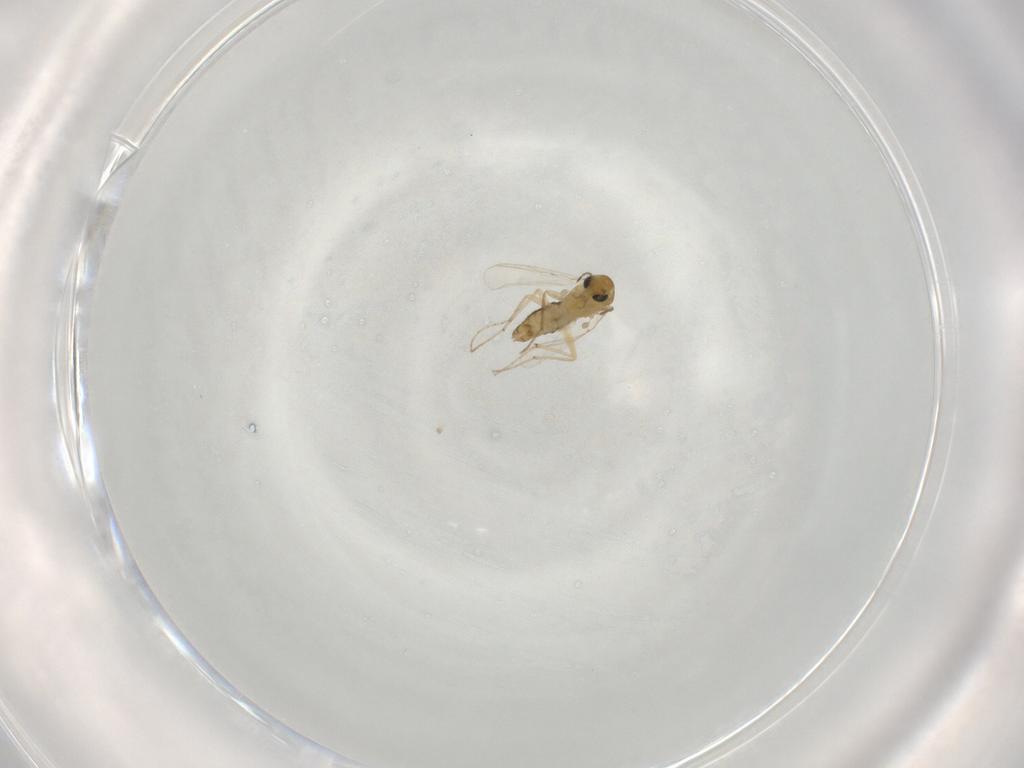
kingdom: Animalia
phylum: Arthropoda
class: Insecta
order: Diptera
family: Chironomidae
